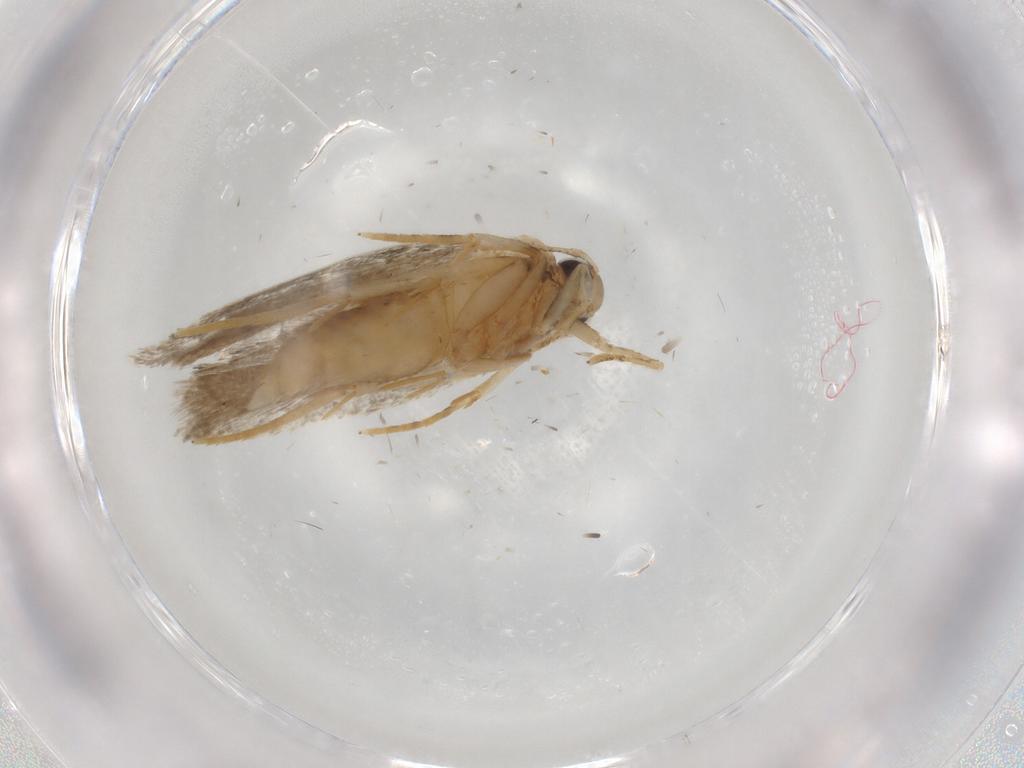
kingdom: Animalia
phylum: Arthropoda
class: Insecta
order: Lepidoptera
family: Autostichidae
